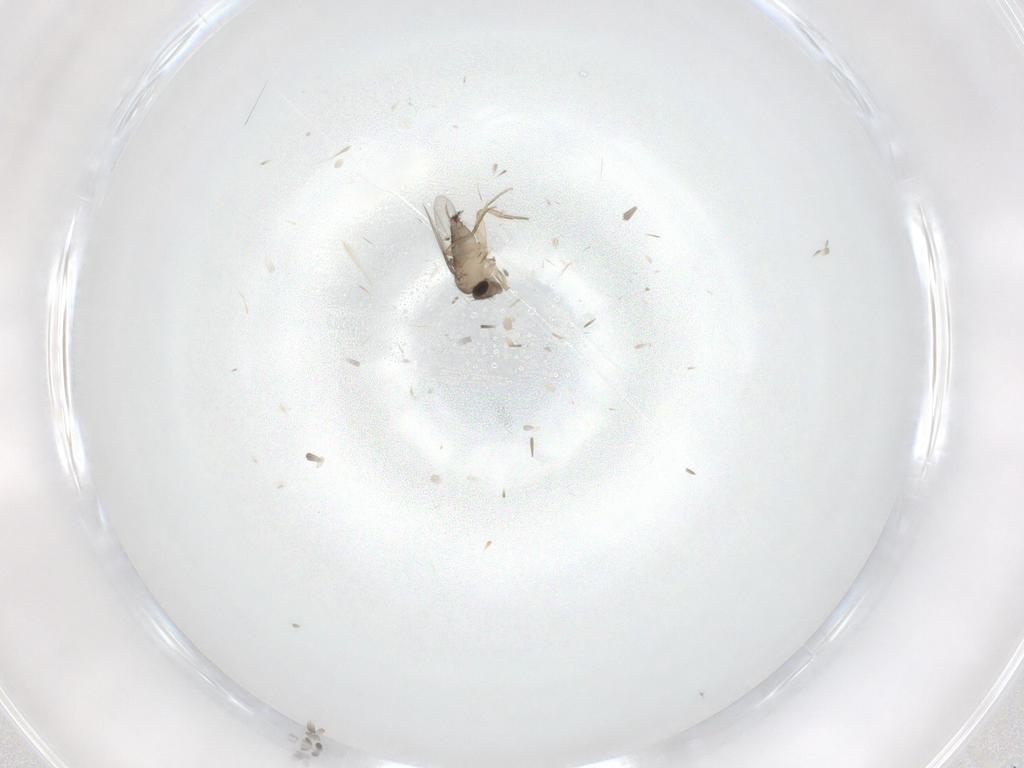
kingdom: Animalia
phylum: Arthropoda
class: Insecta
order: Diptera
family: Phoridae
